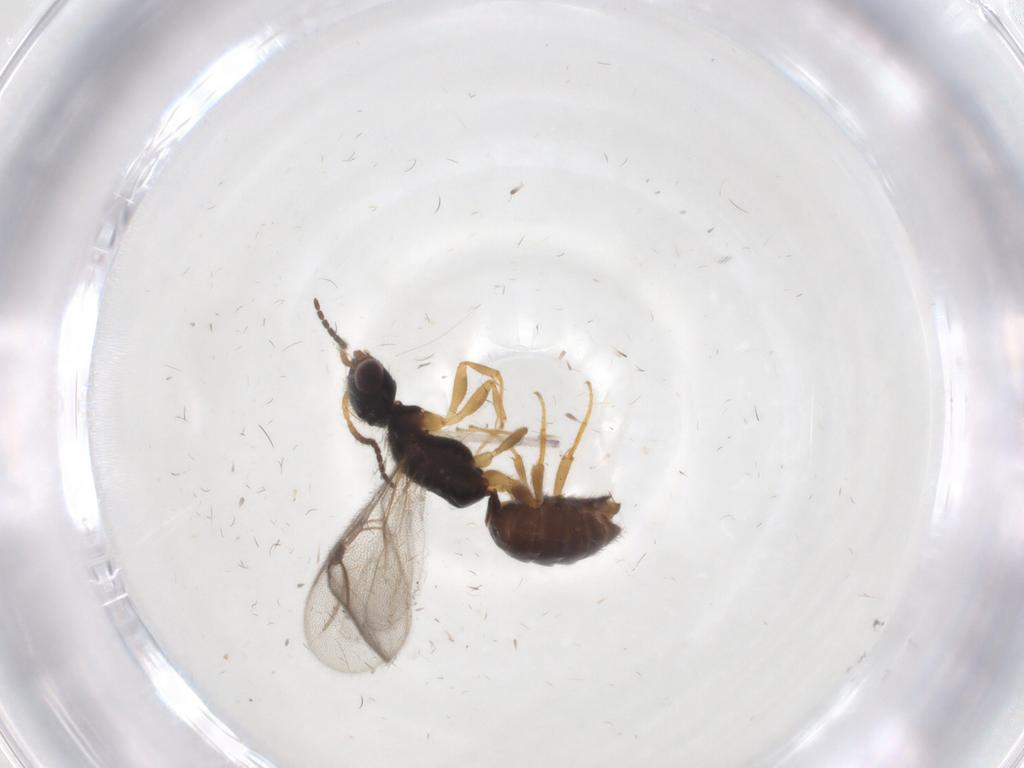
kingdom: Animalia
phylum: Arthropoda
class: Insecta
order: Hymenoptera
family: Bethylidae
